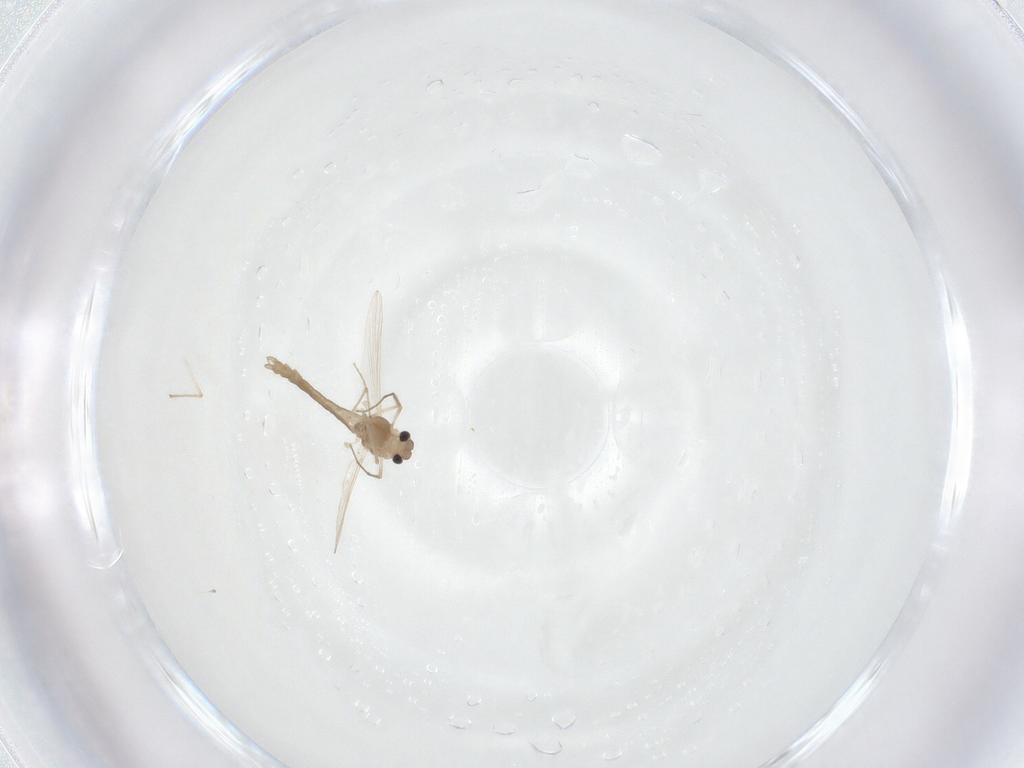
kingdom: Animalia
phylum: Arthropoda
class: Insecta
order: Diptera
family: Chironomidae
